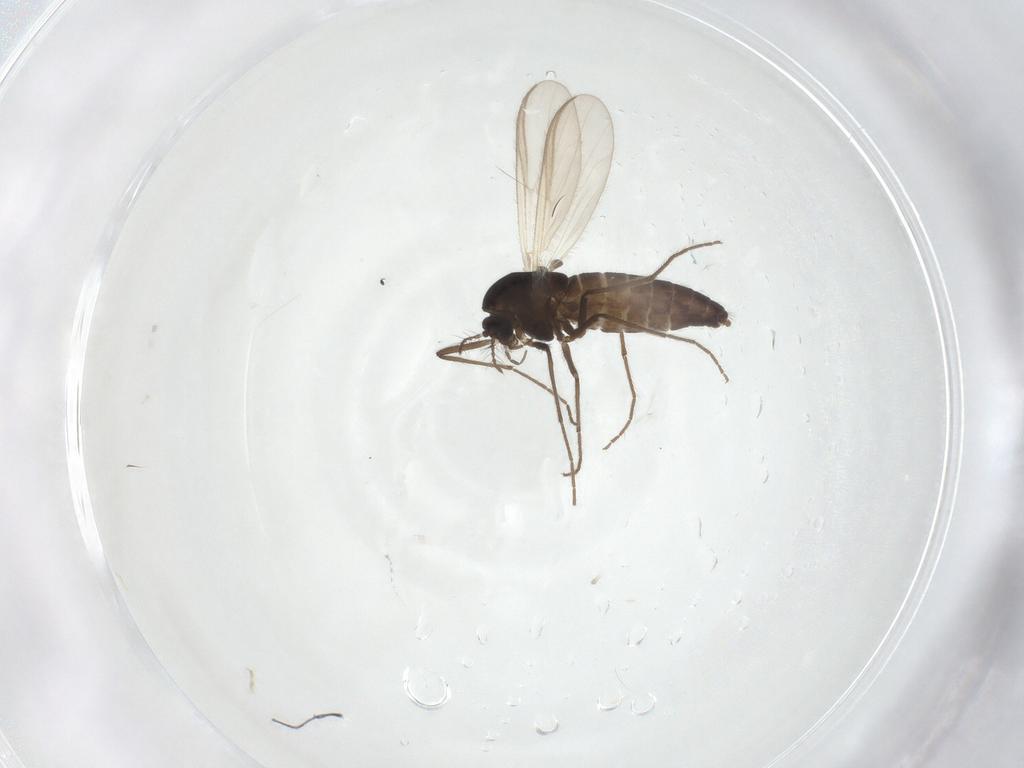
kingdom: Animalia
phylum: Arthropoda
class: Insecta
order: Diptera
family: Chironomidae
